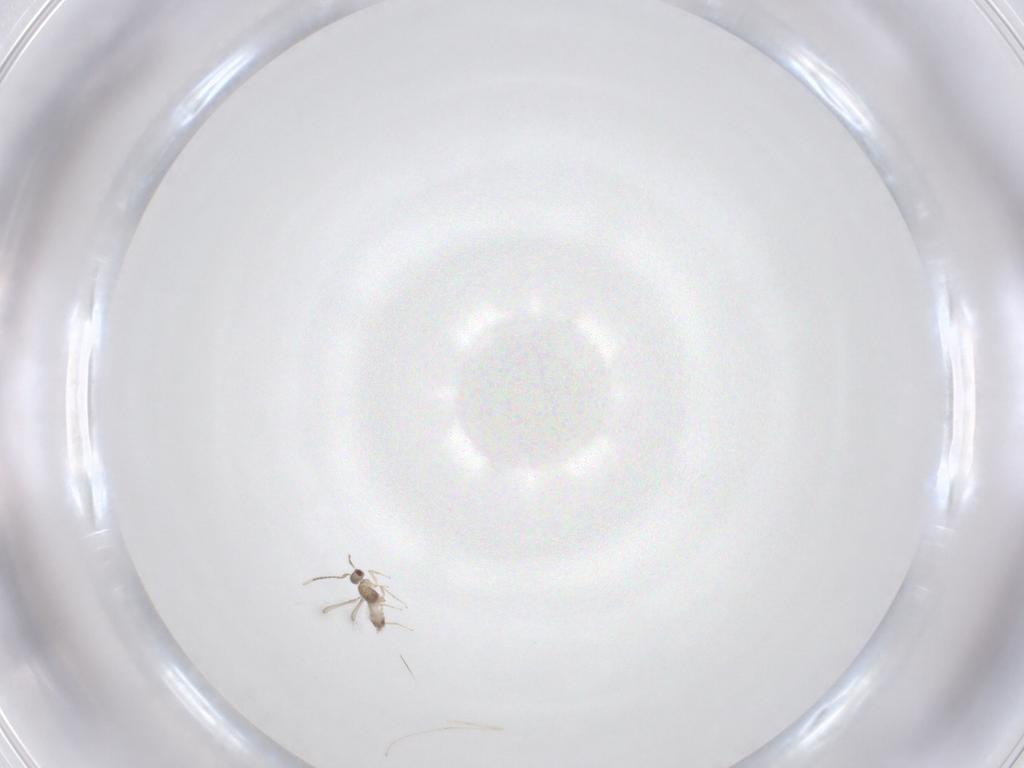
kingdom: Animalia
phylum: Arthropoda
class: Insecta
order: Hymenoptera
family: Mymaridae
